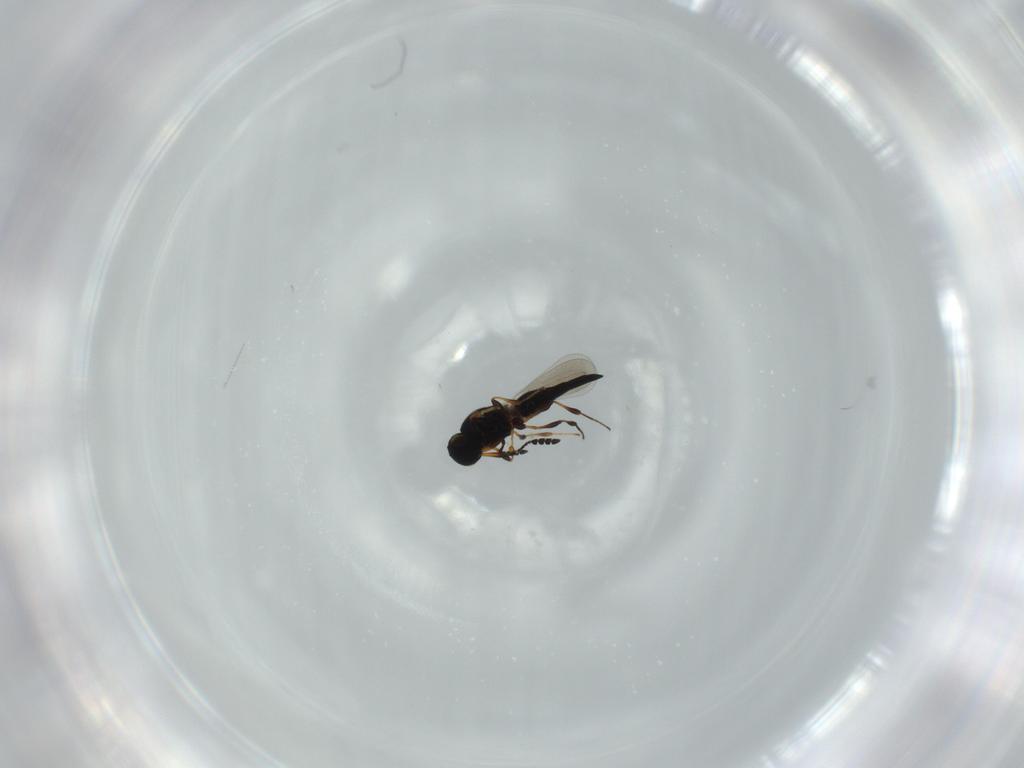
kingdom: Animalia
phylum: Arthropoda
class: Insecta
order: Hymenoptera
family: Platygastridae
